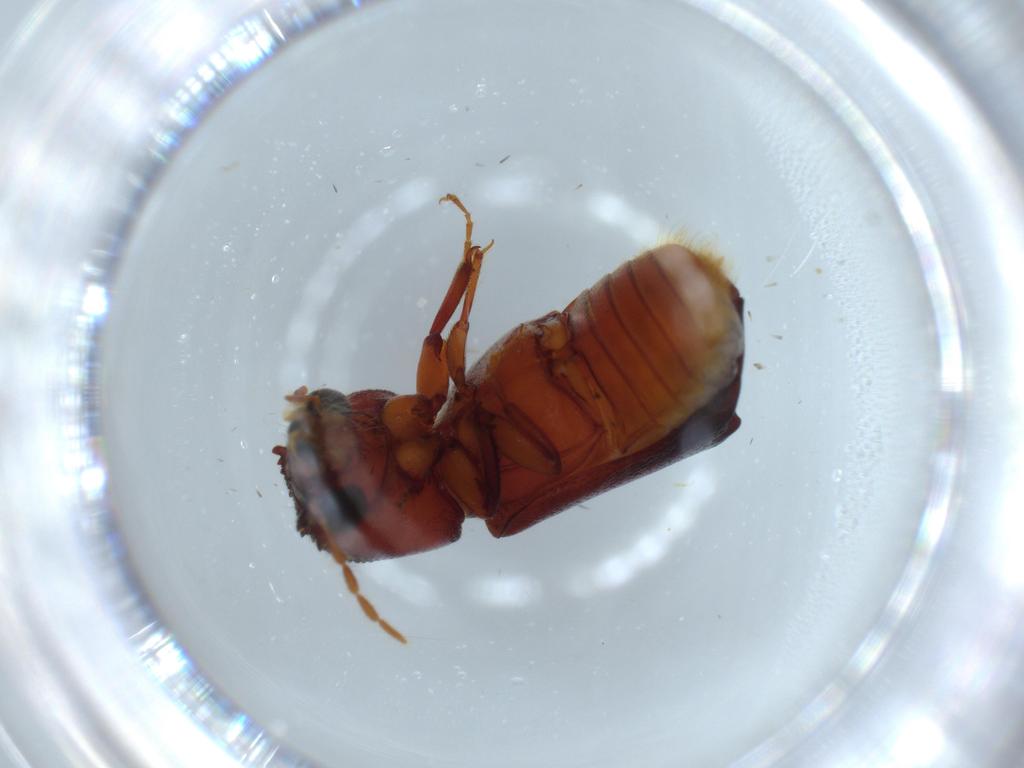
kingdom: Animalia
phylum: Arthropoda
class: Insecta
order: Coleoptera
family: Bostrichidae
